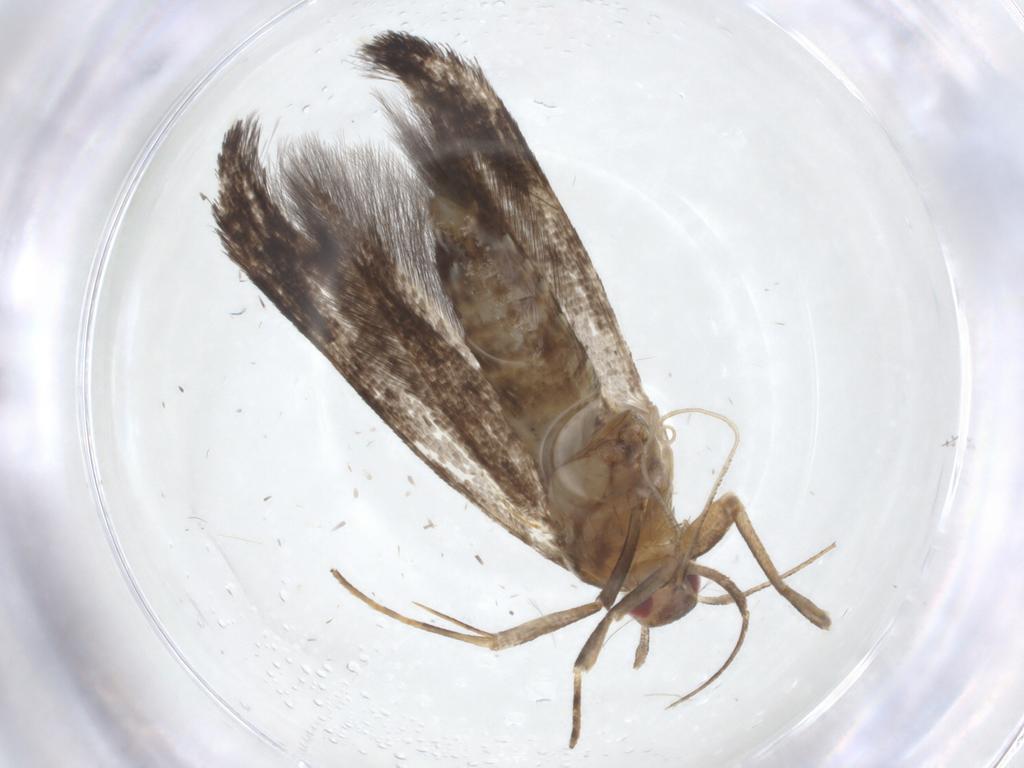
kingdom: Animalia
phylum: Arthropoda
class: Insecta
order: Lepidoptera
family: Cosmopterigidae
